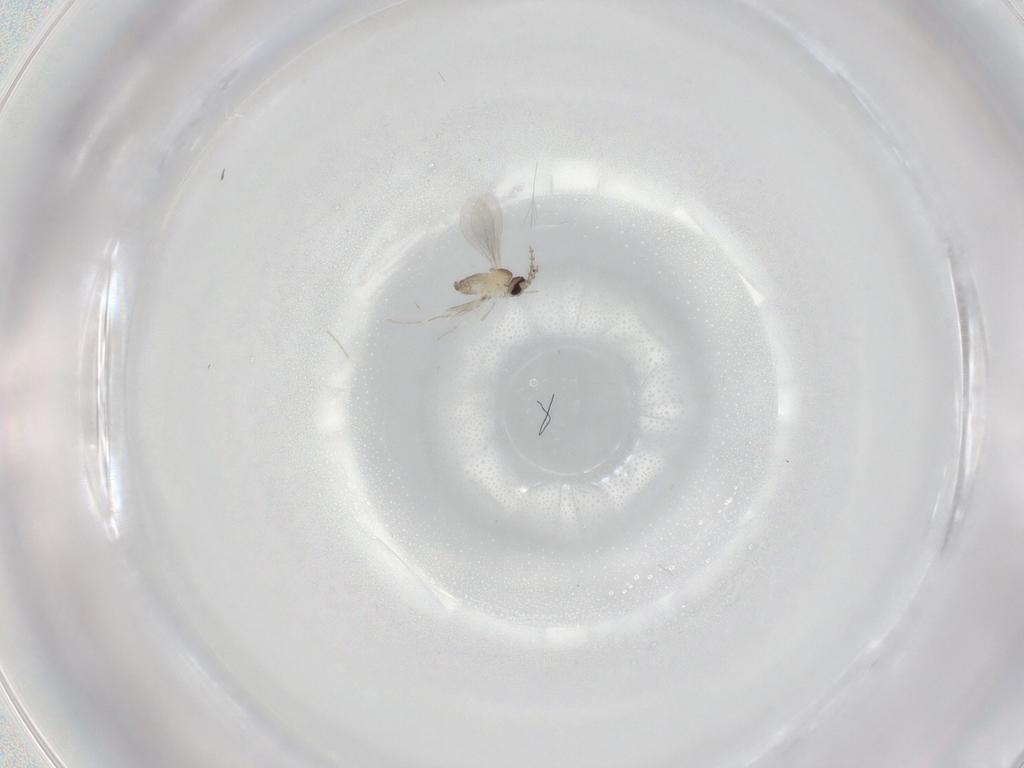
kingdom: Animalia
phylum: Arthropoda
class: Insecta
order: Diptera
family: Cecidomyiidae
